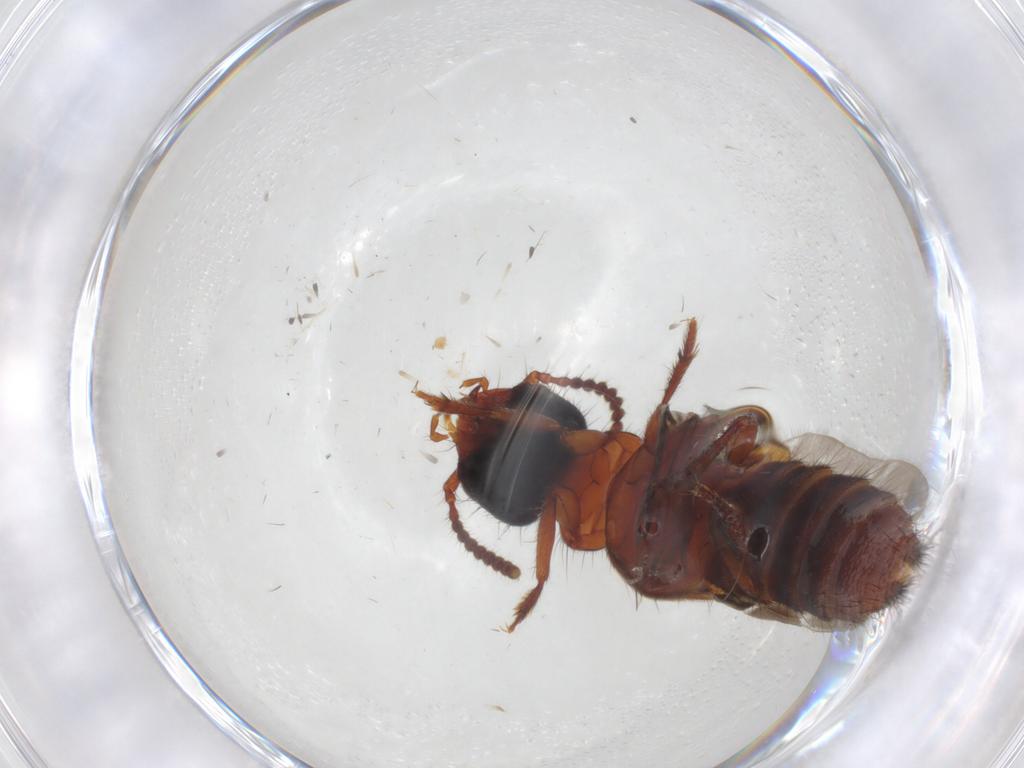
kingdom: Animalia
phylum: Arthropoda
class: Insecta
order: Coleoptera
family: Staphylinidae
